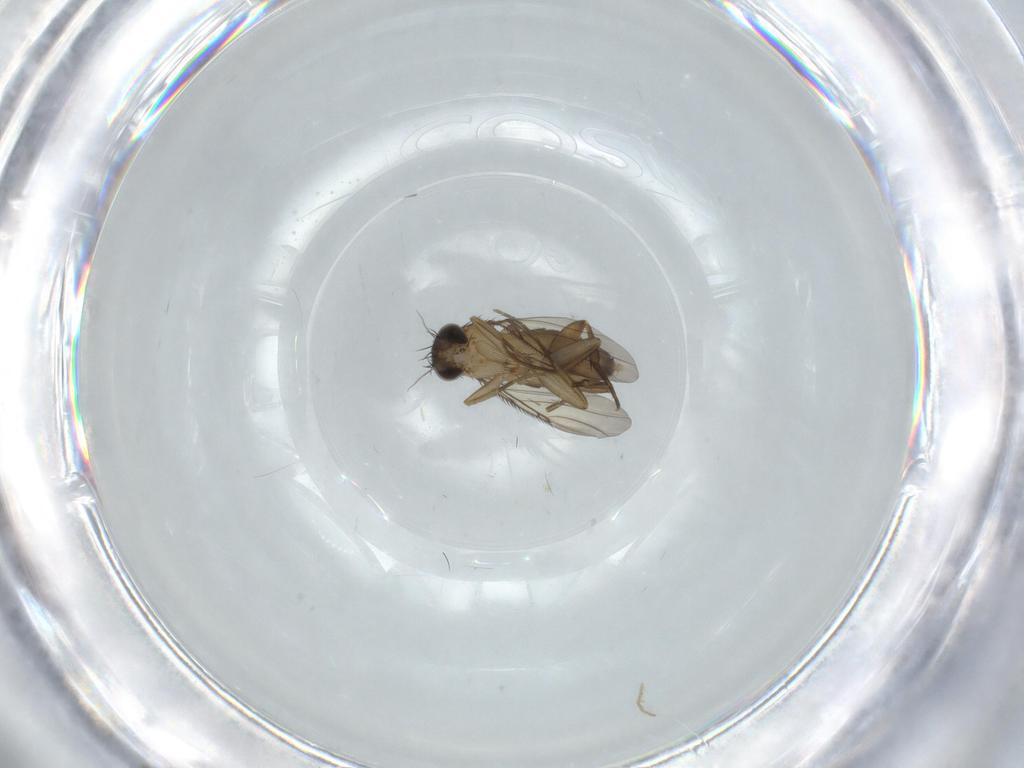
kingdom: Animalia
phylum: Arthropoda
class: Insecta
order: Diptera
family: Phoridae
